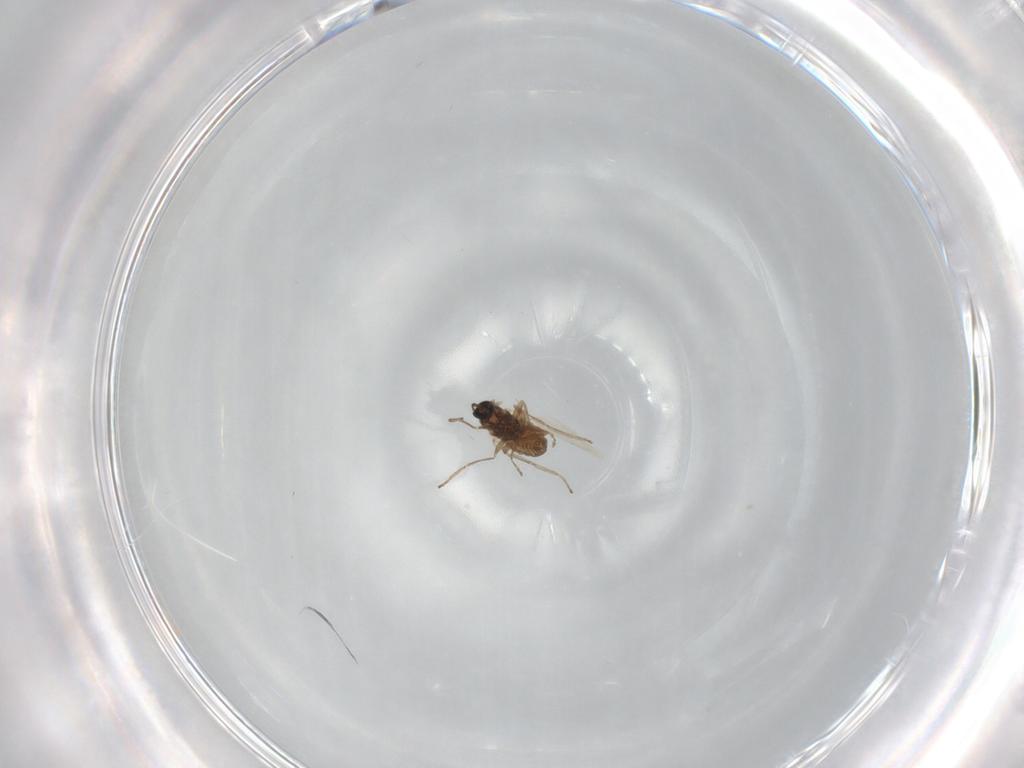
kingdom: Animalia
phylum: Arthropoda
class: Insecta
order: Diptera
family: Cecidomyiidae
